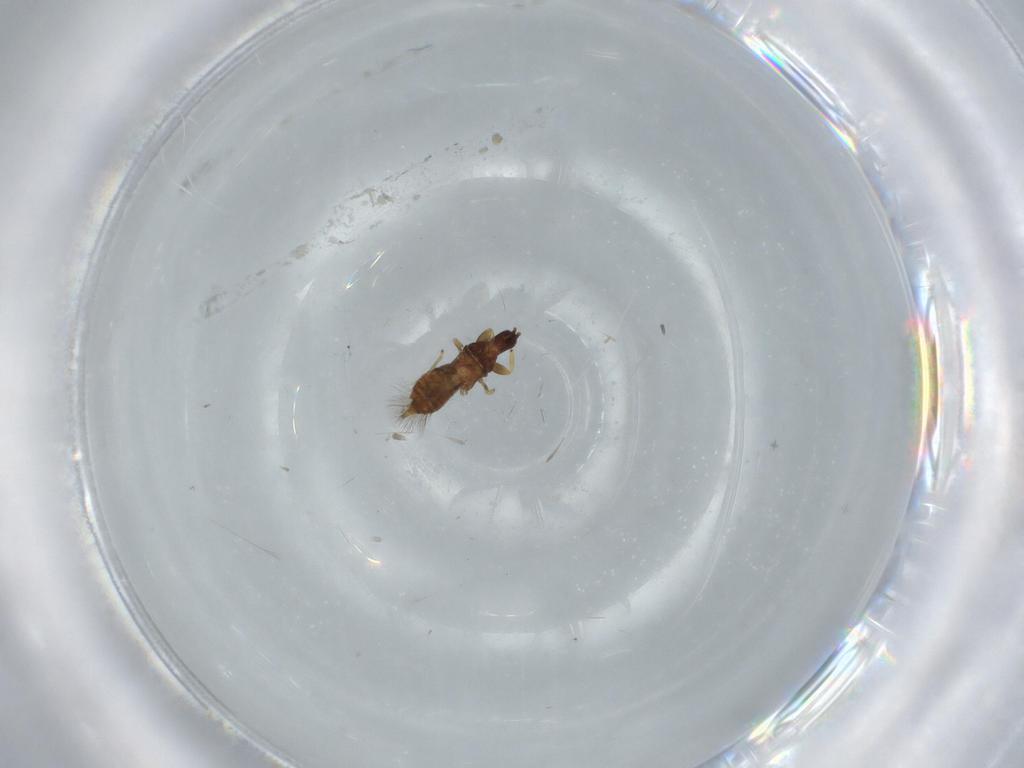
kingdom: Animalia
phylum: Arthropoda
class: Insecta
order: Thysanoptera
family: Phlaeothripidae
